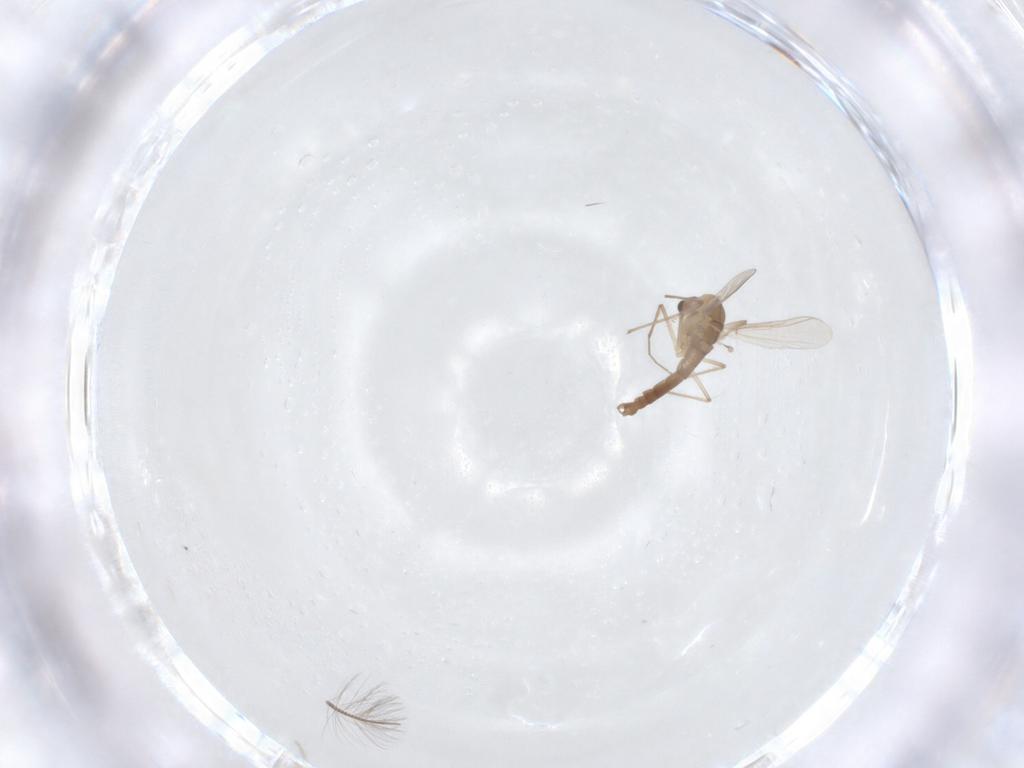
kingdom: Animalia
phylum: Arthropoda
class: Insecta
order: Diptera
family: Chironomidae
